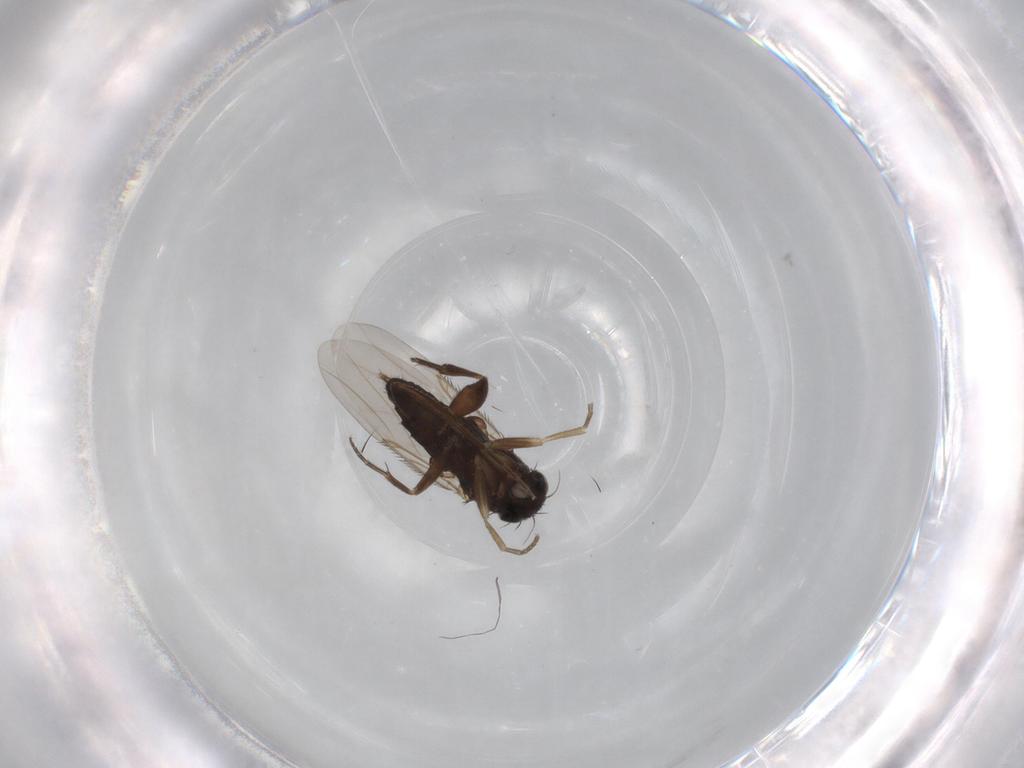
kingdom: Animalia
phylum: Arthropoda
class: Insecta
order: Diptera
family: Phoridae
